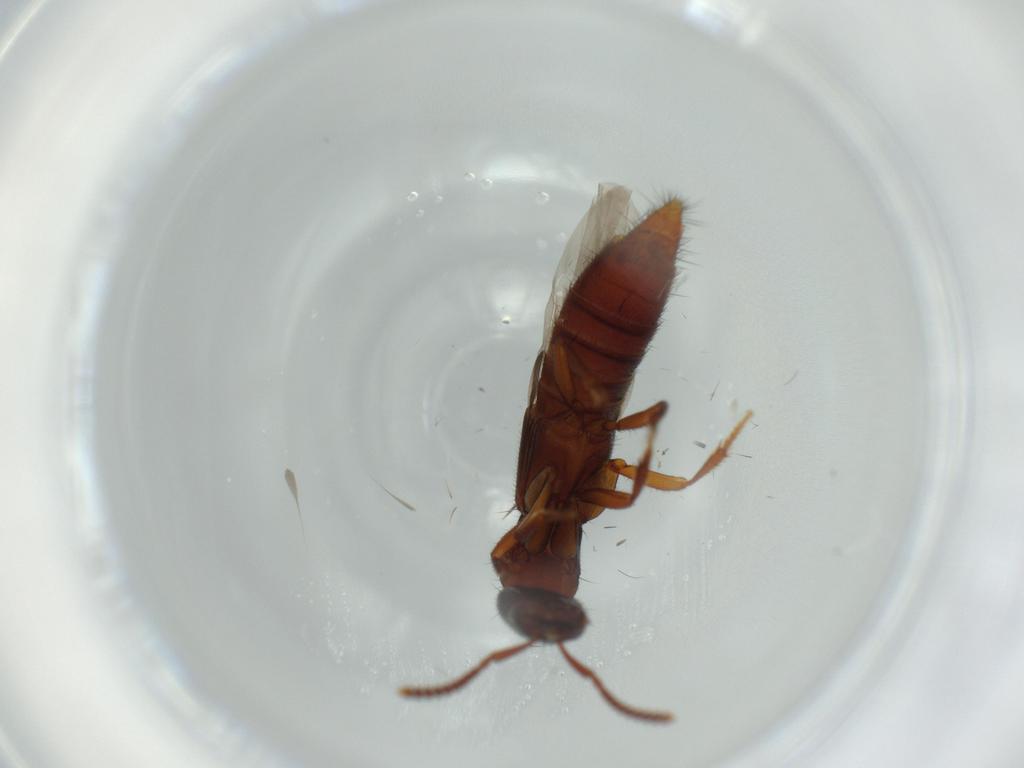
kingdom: Animalia
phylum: Arthropoda
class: Insecta
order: Coleoptera
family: Staphylinidae
